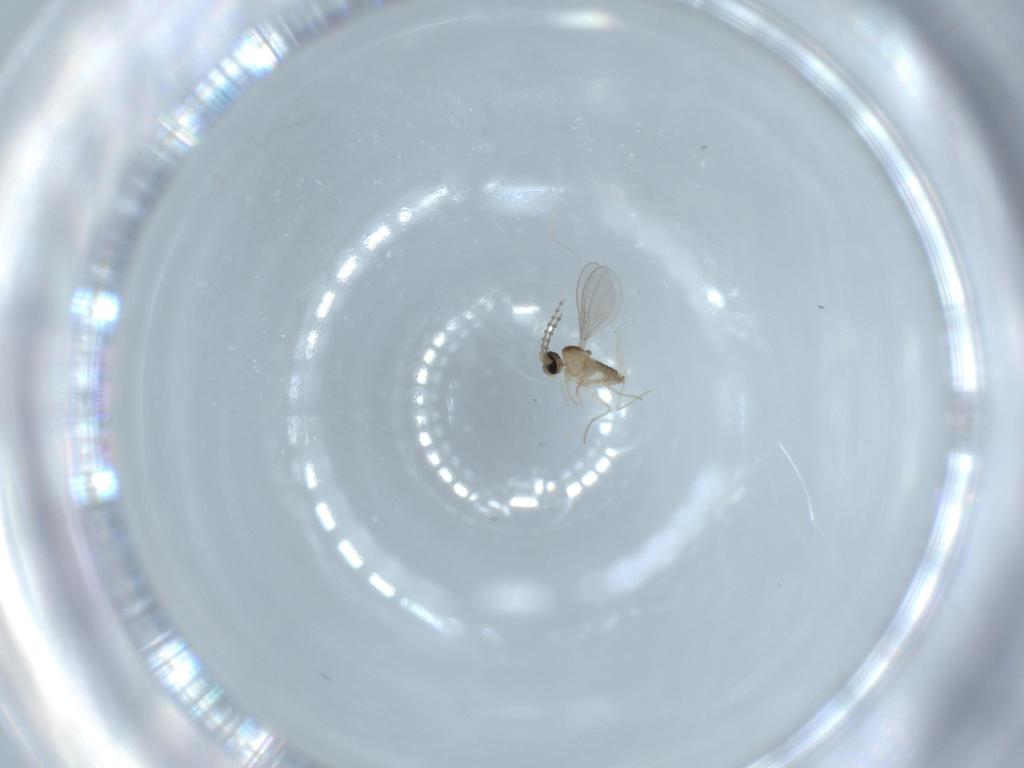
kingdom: Animalia
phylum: Arthropoda
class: Insecta
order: Diptera
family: Cecidomyiidae
